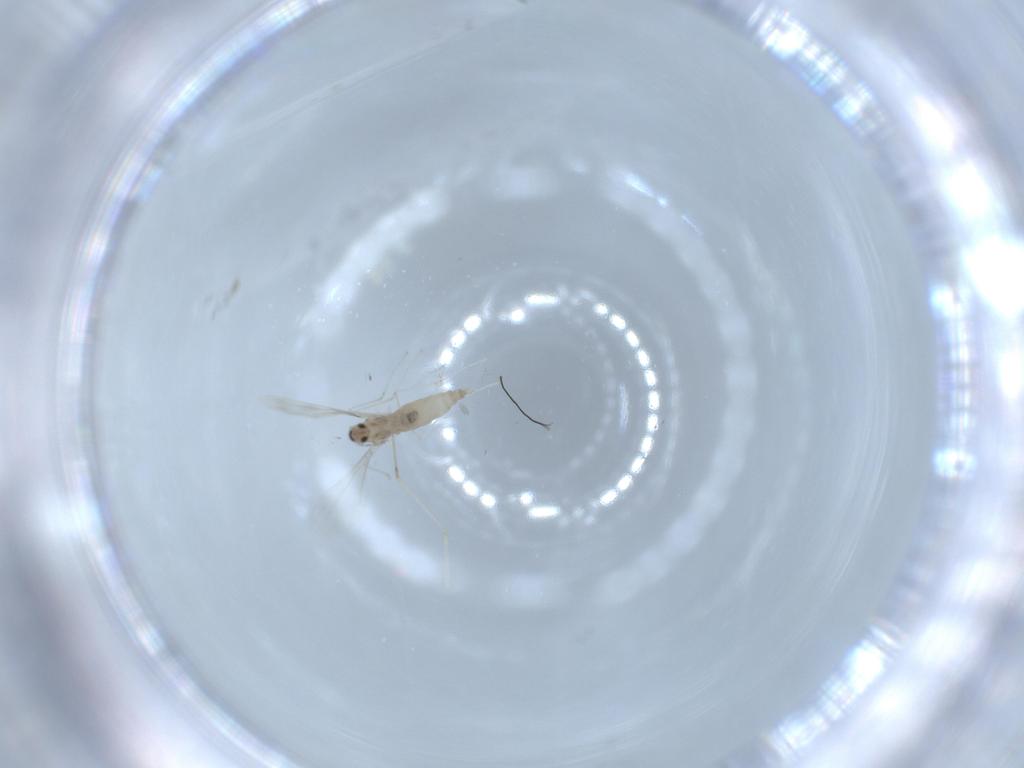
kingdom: Animalia
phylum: Arthropoda
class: Insecta
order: Diptera
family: Cecidomyiidae
